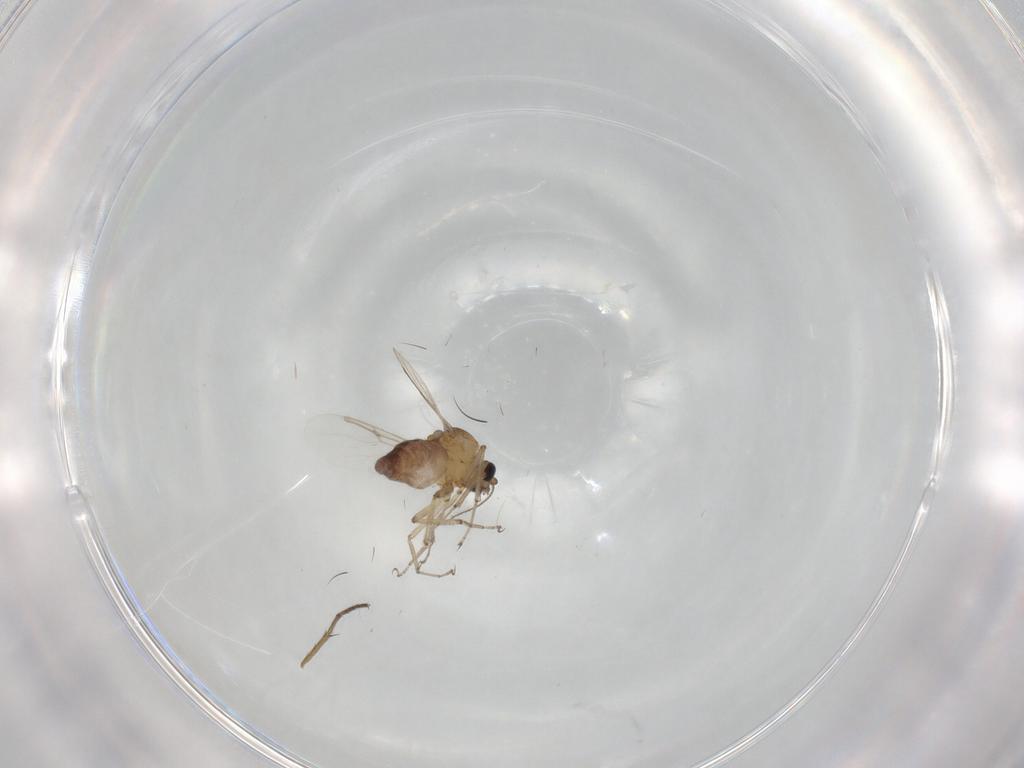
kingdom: Animalia
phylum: Arthropoda
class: Insecta
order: Diptera
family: Ceratopogonidae
